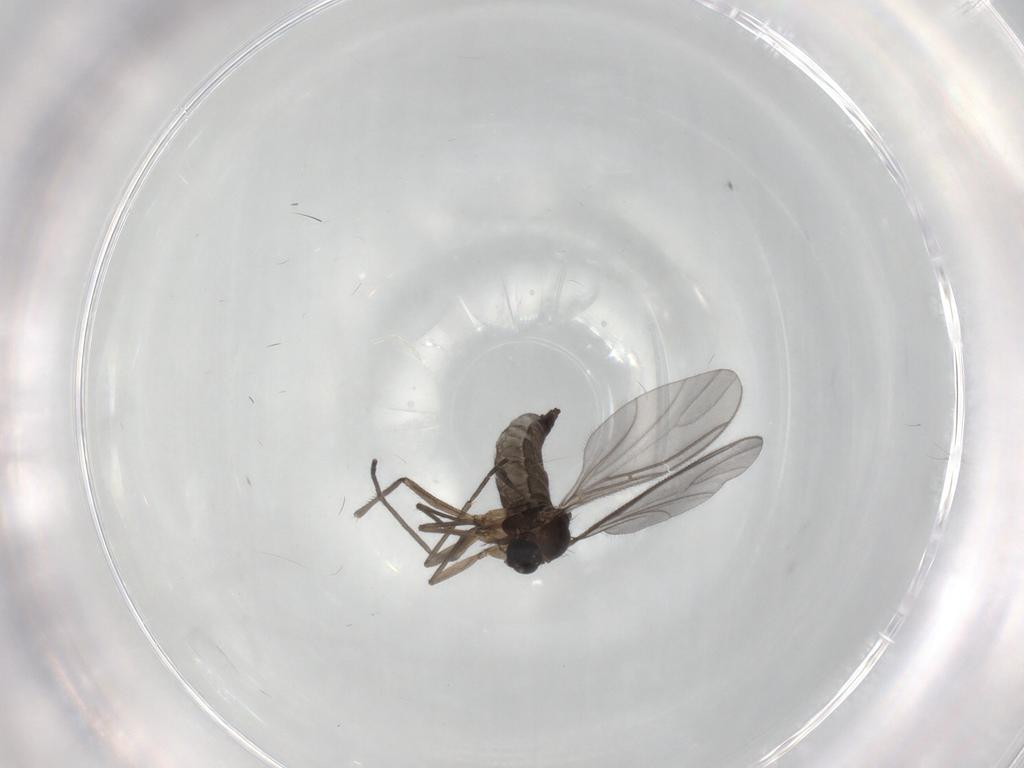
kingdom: Animalia
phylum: Arthropoda
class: Insecta
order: Diptera
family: Sciaridae
